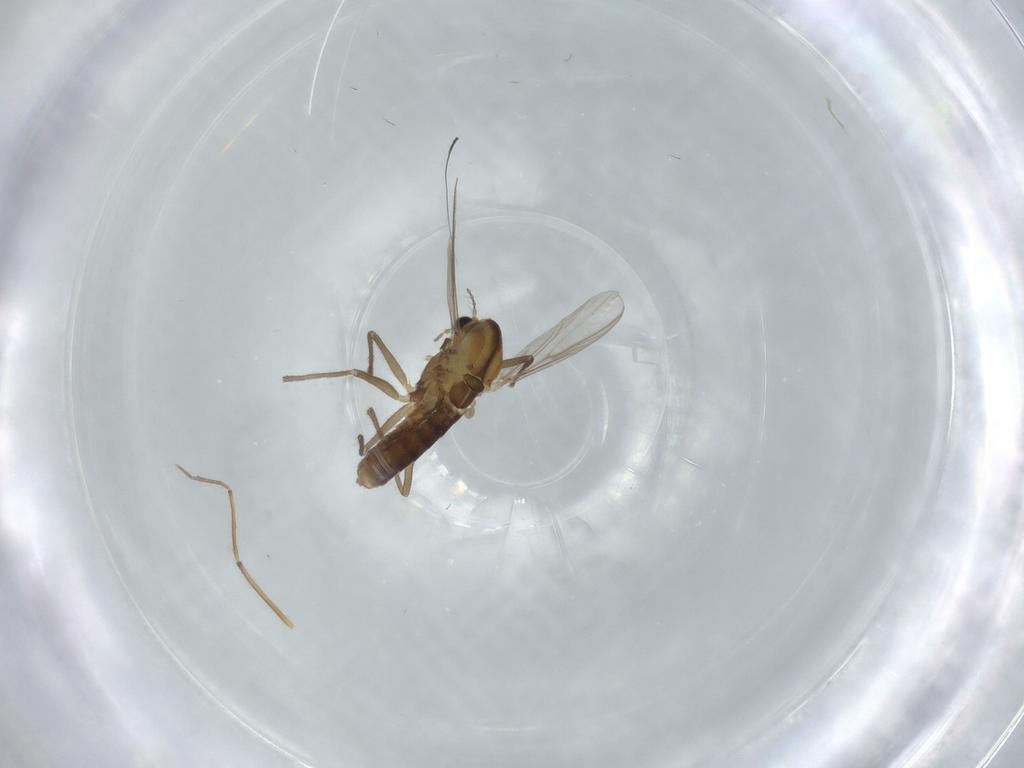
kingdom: Animalia
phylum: Arthropoda
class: Insecta
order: Diptera
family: Chironomidae
